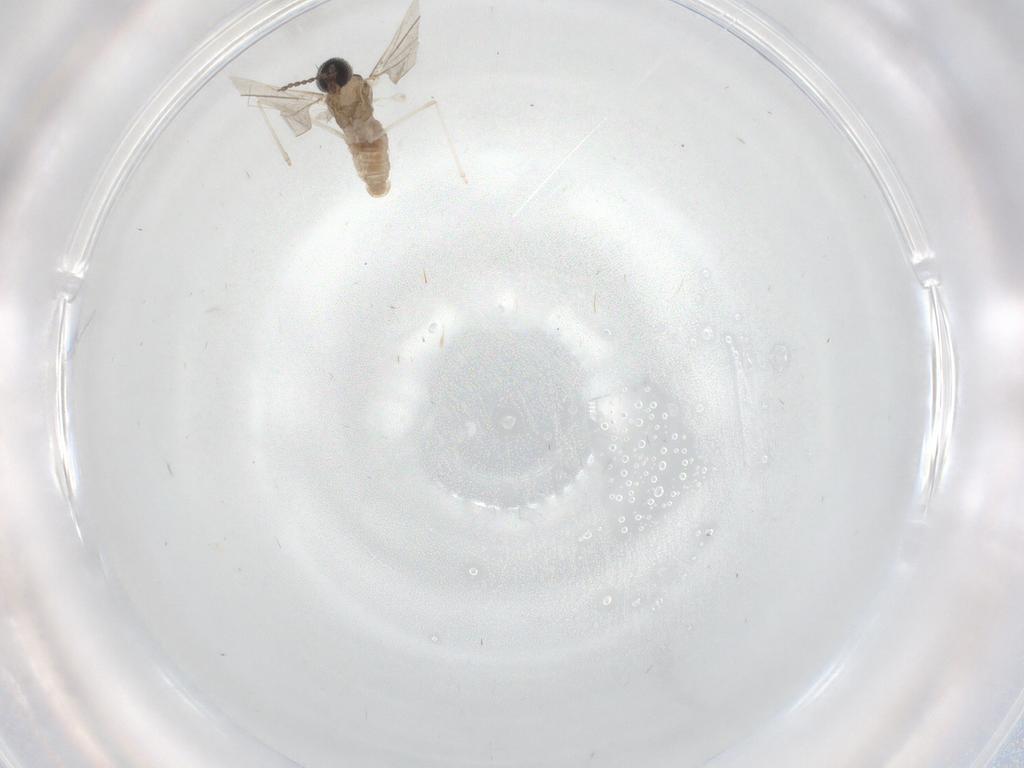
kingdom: Animalia
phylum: Arthropoda
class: Insecta
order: Diptera
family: Cecidomyiidae
